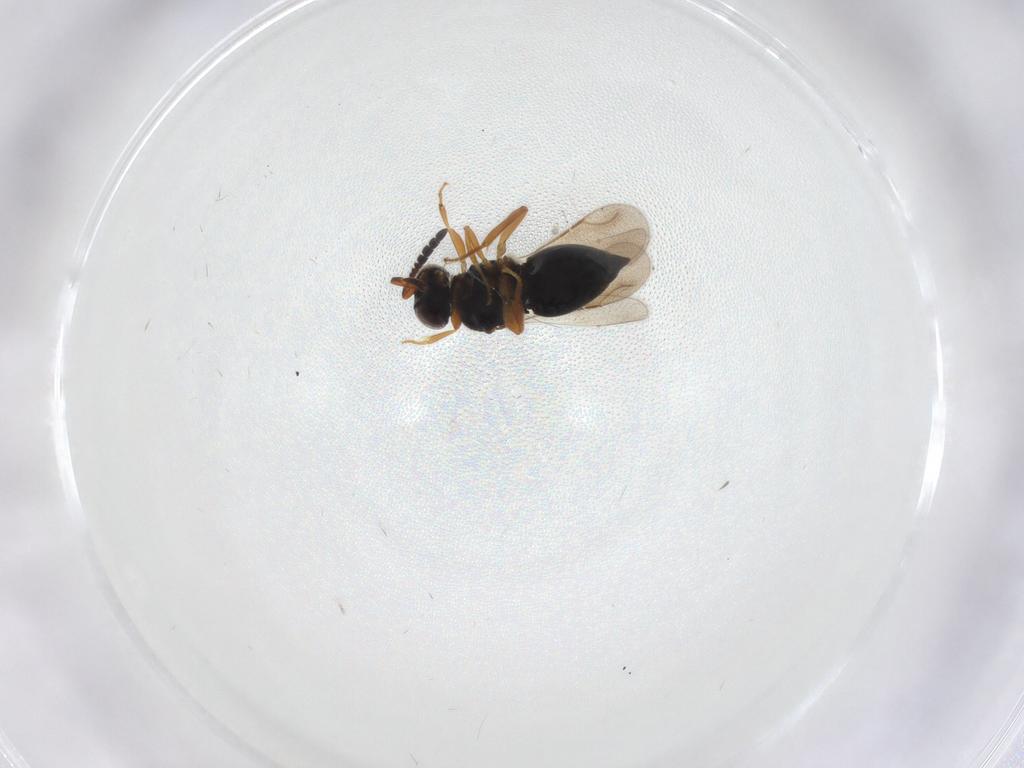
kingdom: Animalia
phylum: Arthropoda
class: Insecta
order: Hymenoptera
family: Ceraphronidae
